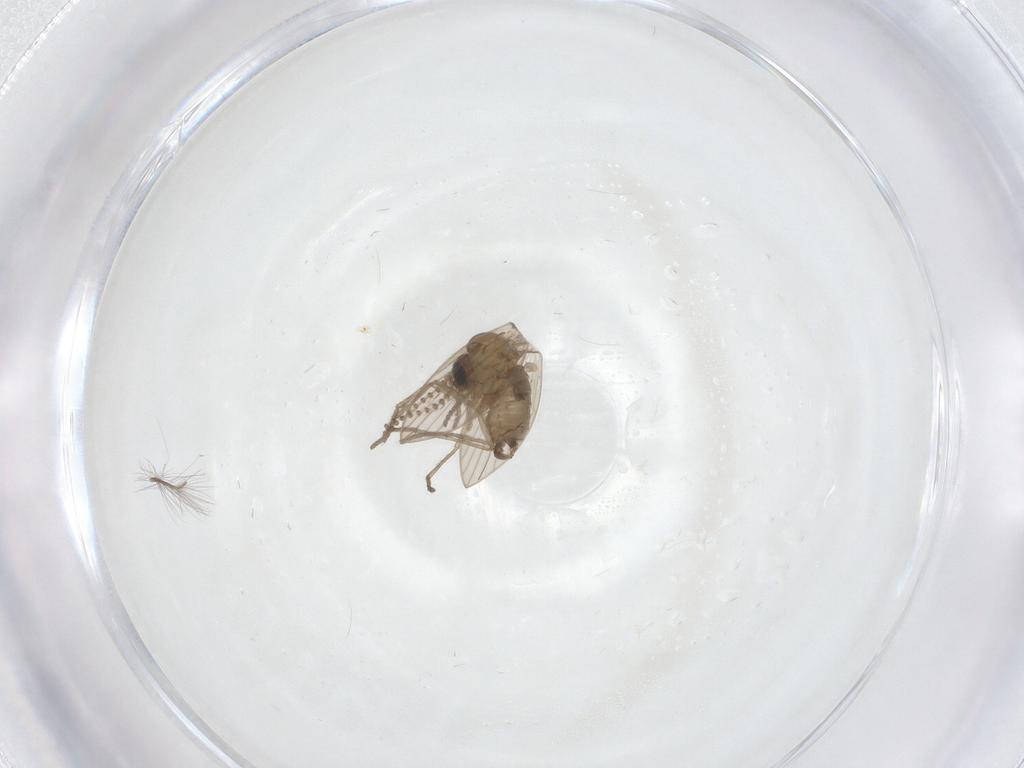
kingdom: Animalia
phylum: Arthropoda
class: Insecta
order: Diptera
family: Psychodidae
